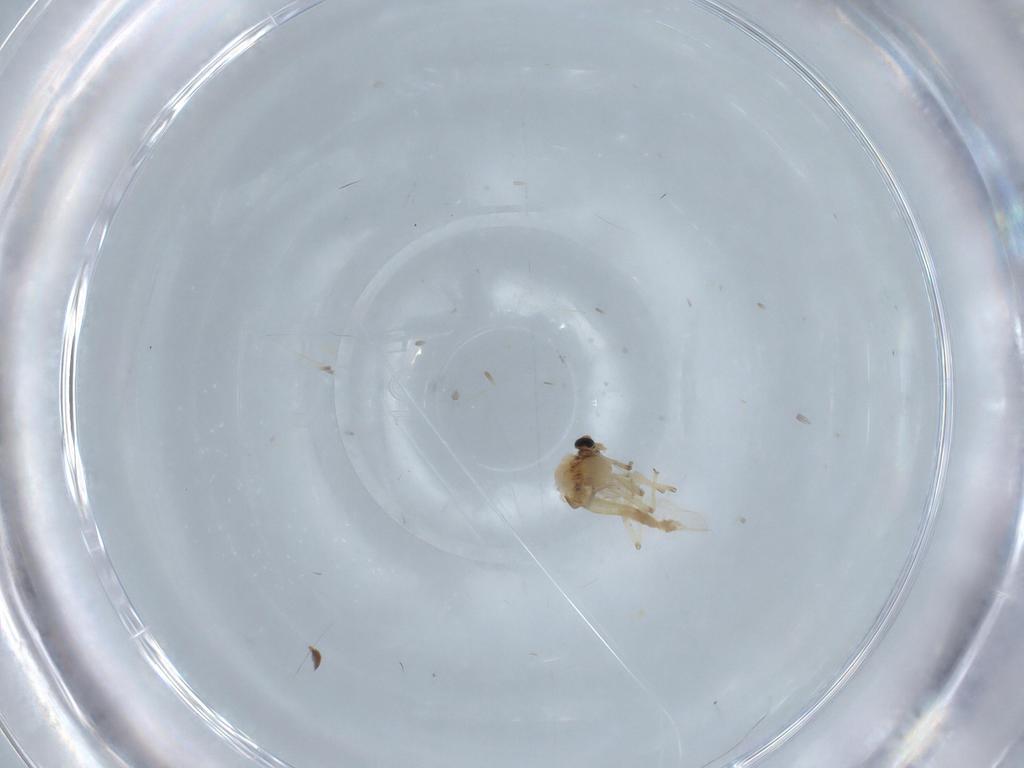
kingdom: Animalia
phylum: Arthropoda
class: Insecta
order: Diptera
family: Chironomidae
